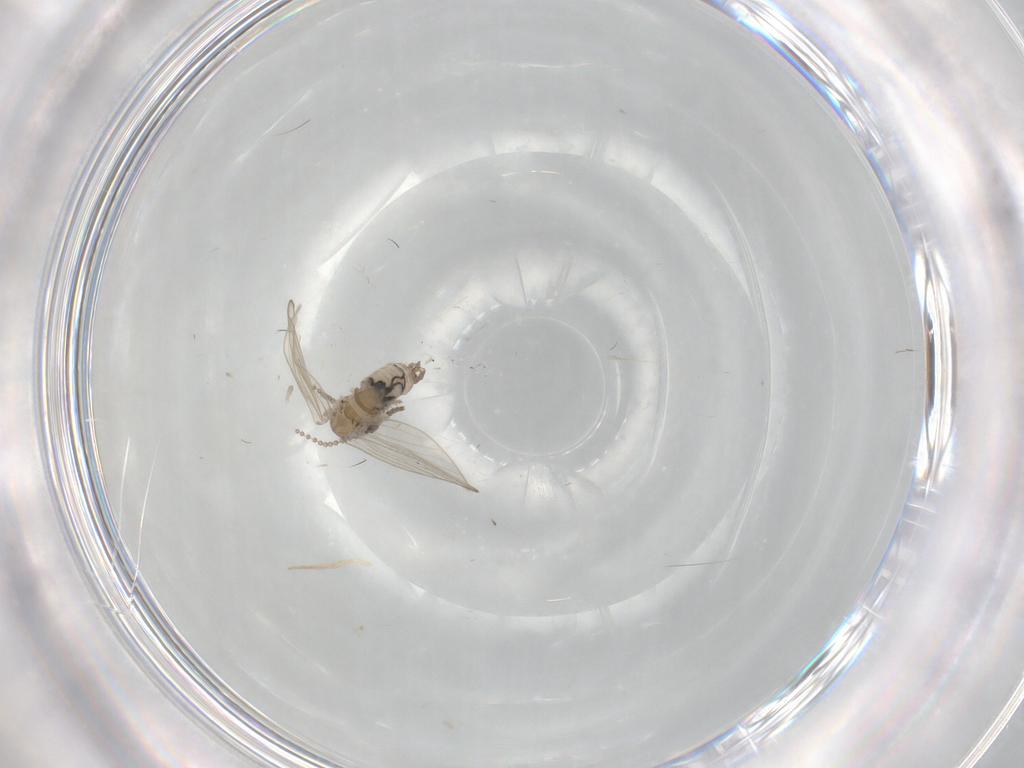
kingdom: Animalia
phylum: Arthropoda
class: Insecta
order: Diptera
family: Psychodidae
